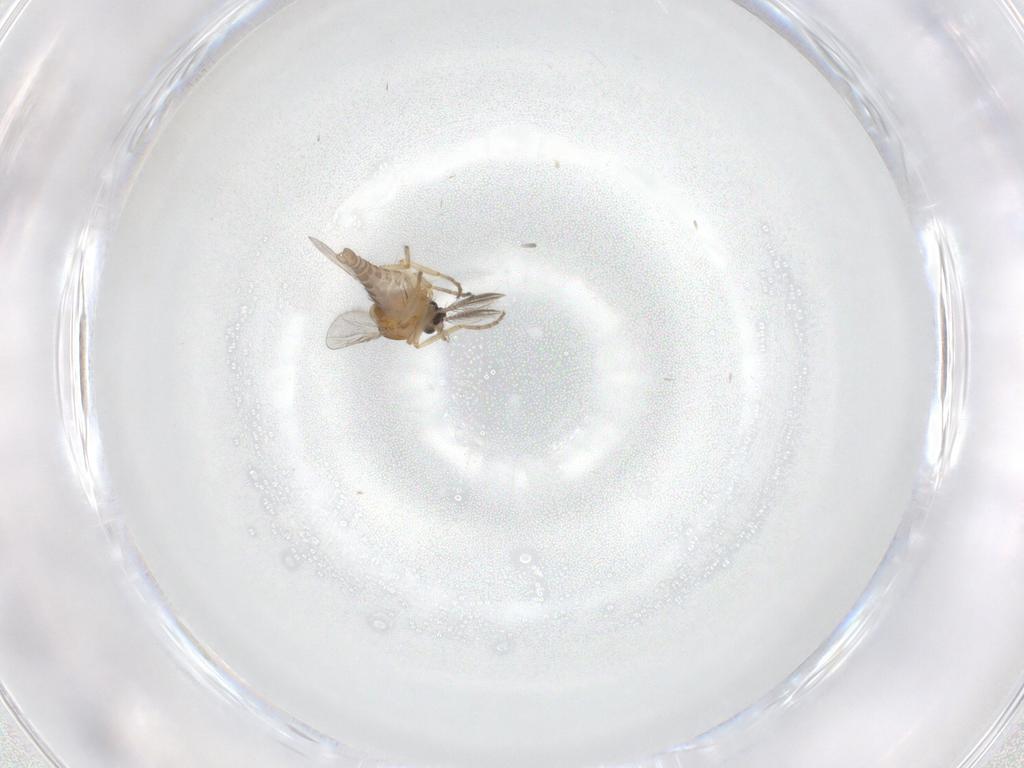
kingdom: Animalia
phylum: Arthropoda
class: Insecta
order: Diptera
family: Ceratopogonidae
